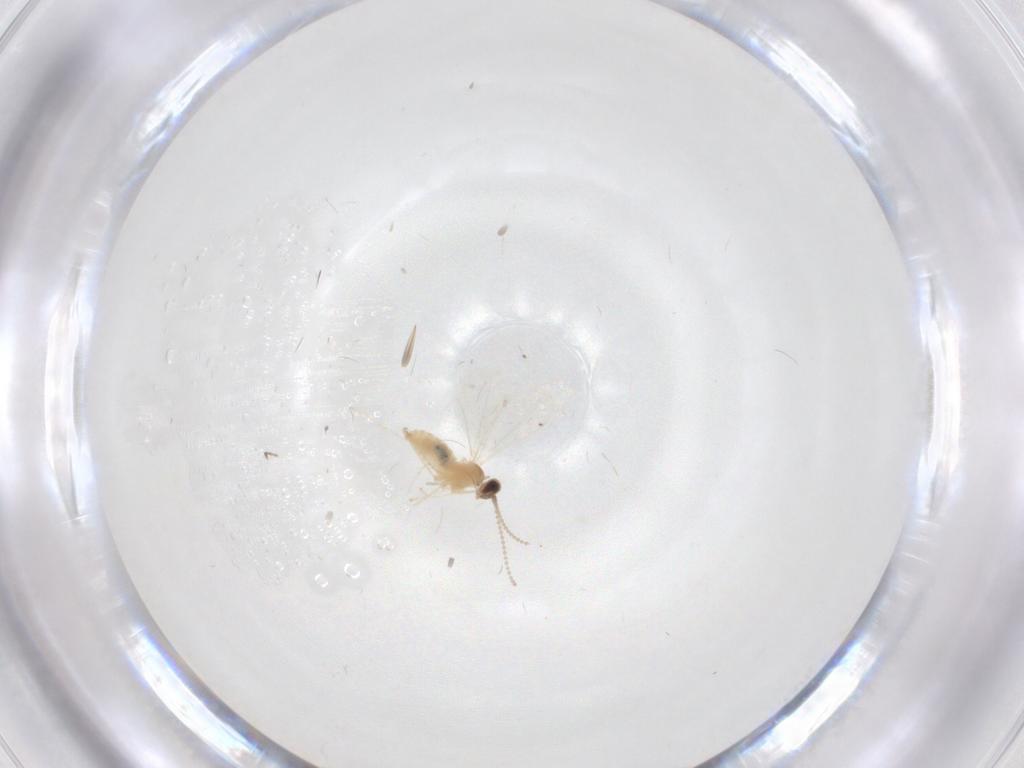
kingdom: Animalia
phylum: Arthropoda
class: Insecta
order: Diptera
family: Cecidomyiidae
